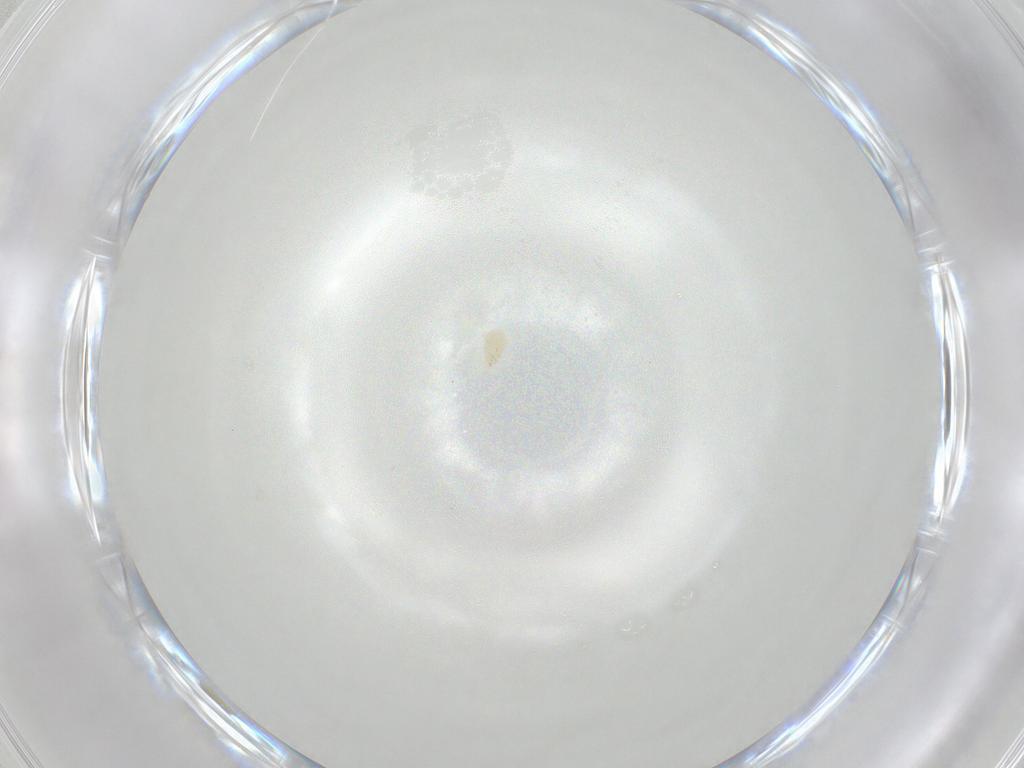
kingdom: Animalia
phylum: Arthropoda
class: Arachnida
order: Mesostigmata
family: Phytoseiidae
